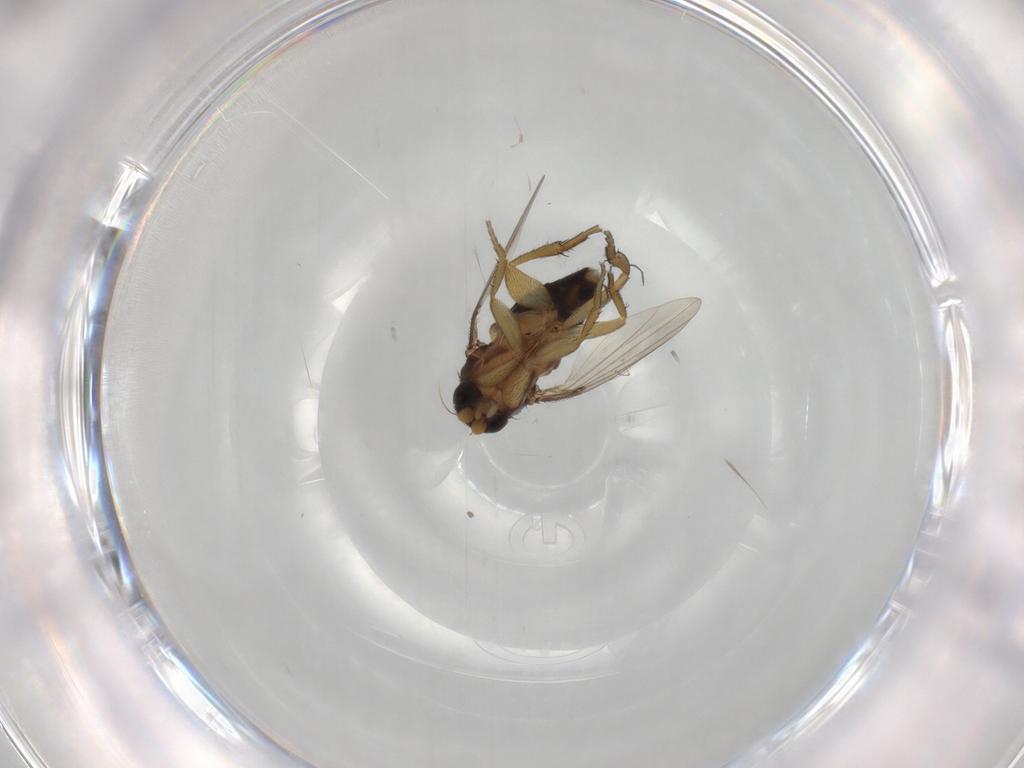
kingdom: Animalia
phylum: Arthropoda
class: Insecta
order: Diptera
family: Phoridae
